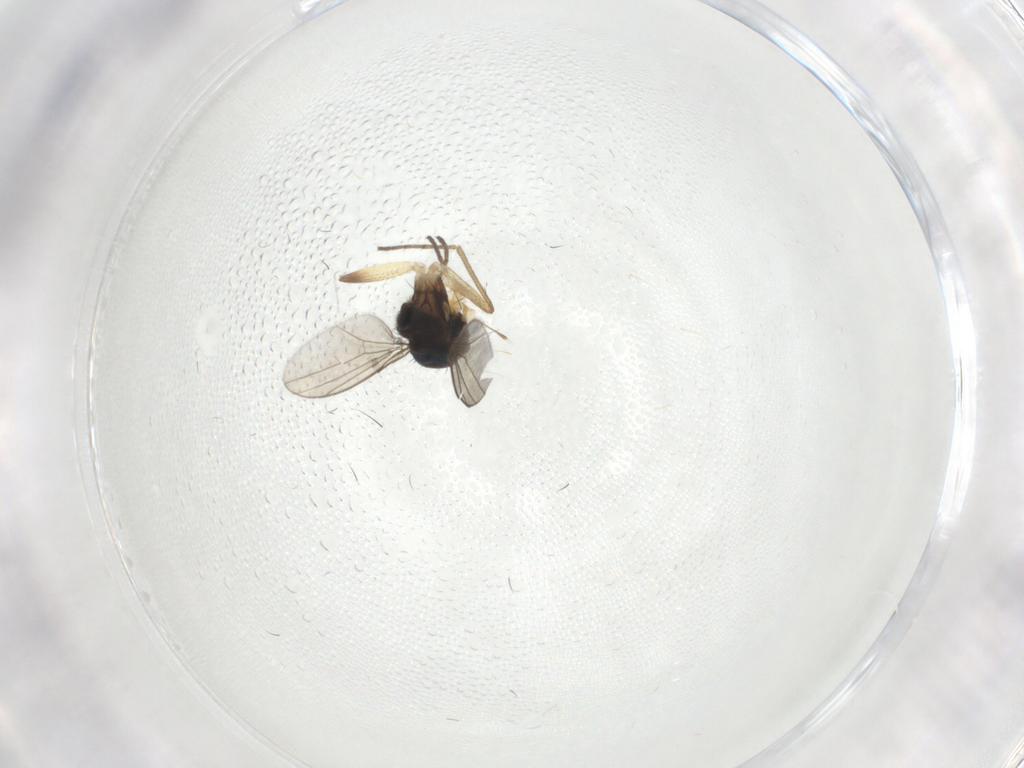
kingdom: Animalia
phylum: Arthropoda
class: Insecta
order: Diptera
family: Dolichopodidae
